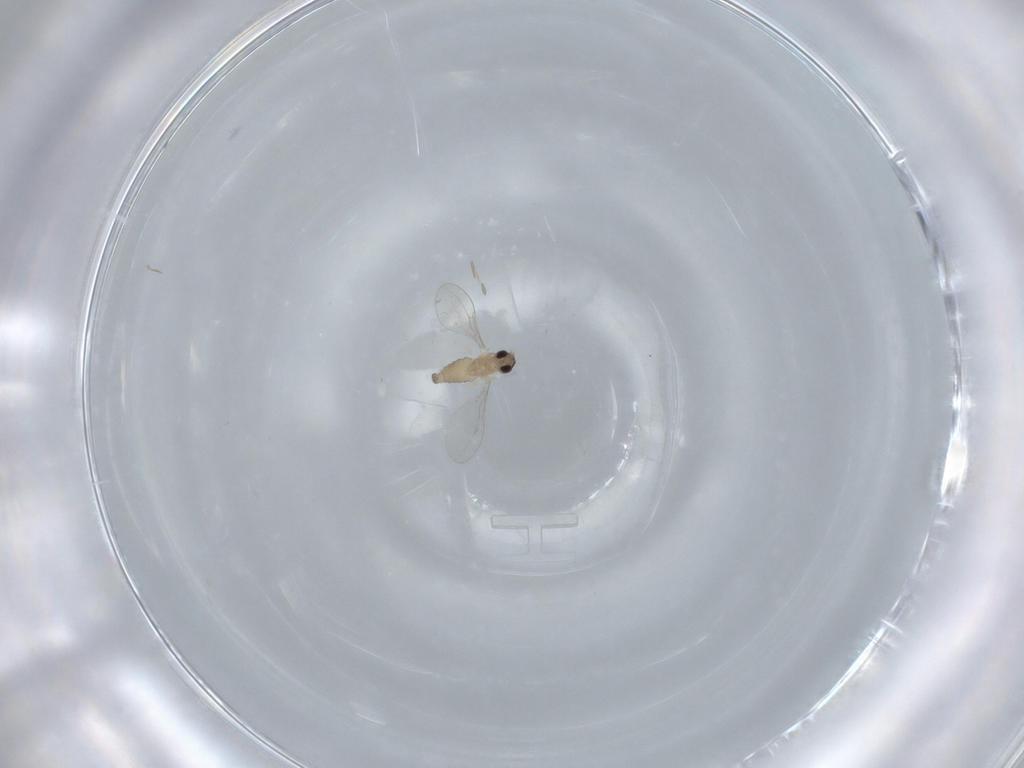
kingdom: Animalia
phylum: Arthropoda
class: Insecta
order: Diptera
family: Cecidomyiidae
